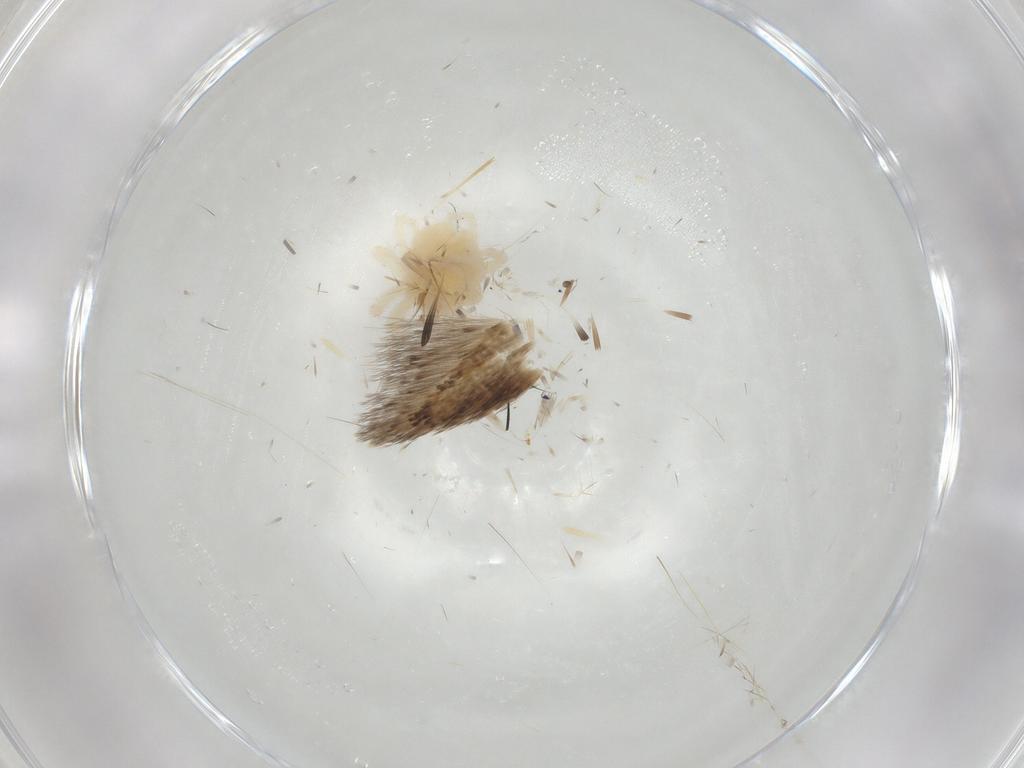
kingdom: Animalia
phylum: Arthropoda
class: Arachnida
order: Trombidiformes
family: Anystidae
